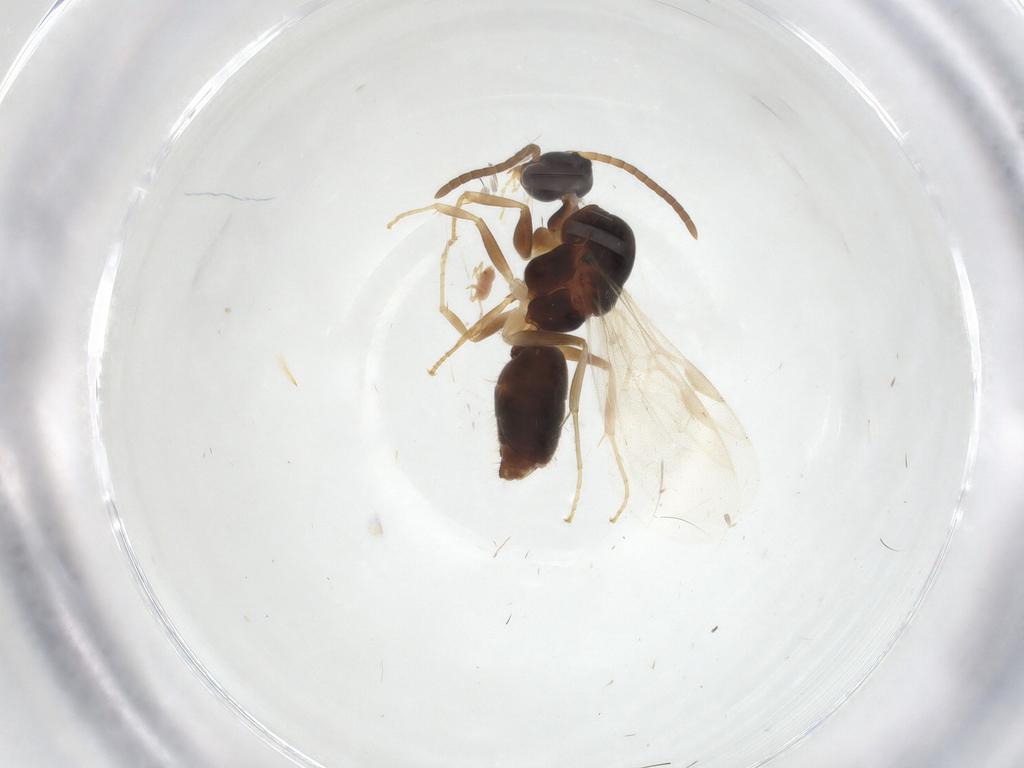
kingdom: Animalia
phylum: Arthropoda
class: Insecta
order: Hymenoptera
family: Formicidae
